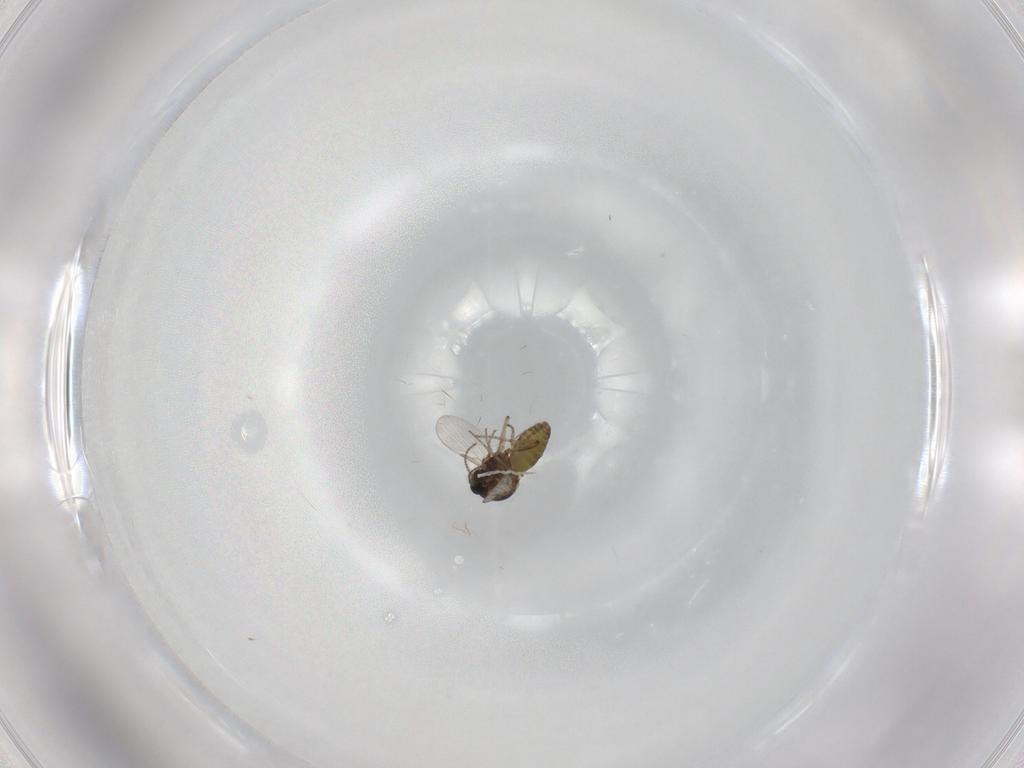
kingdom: Animalia
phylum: Arthropoda
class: Insecta
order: Diptera
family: Ceratopogonidae
